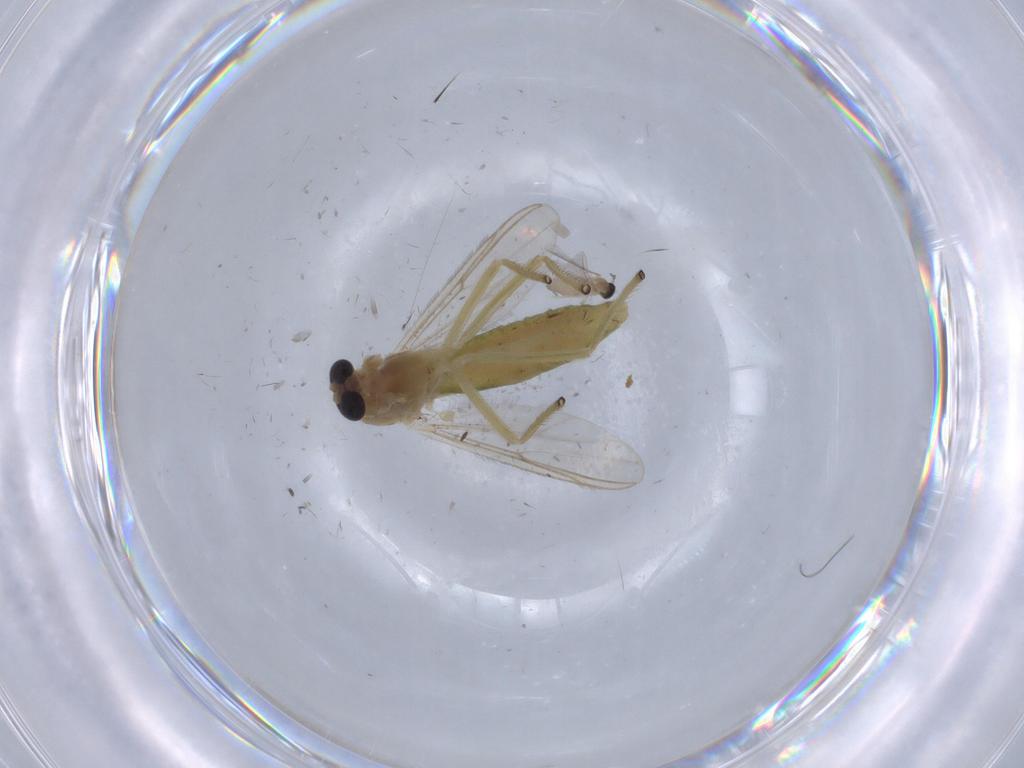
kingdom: Animalia
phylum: Arthropoda
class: Insecta
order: Diptera
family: Chironomidae
